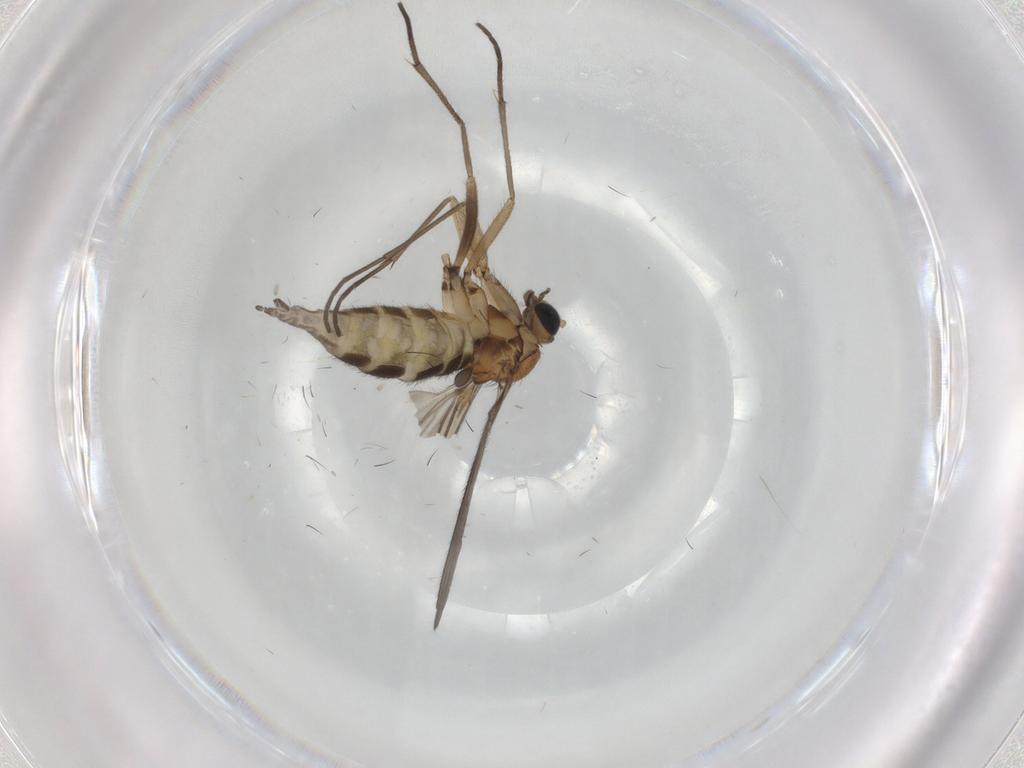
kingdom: Animalia
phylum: Arthropoda
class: Insecta
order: Diptera
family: Sciaridae
